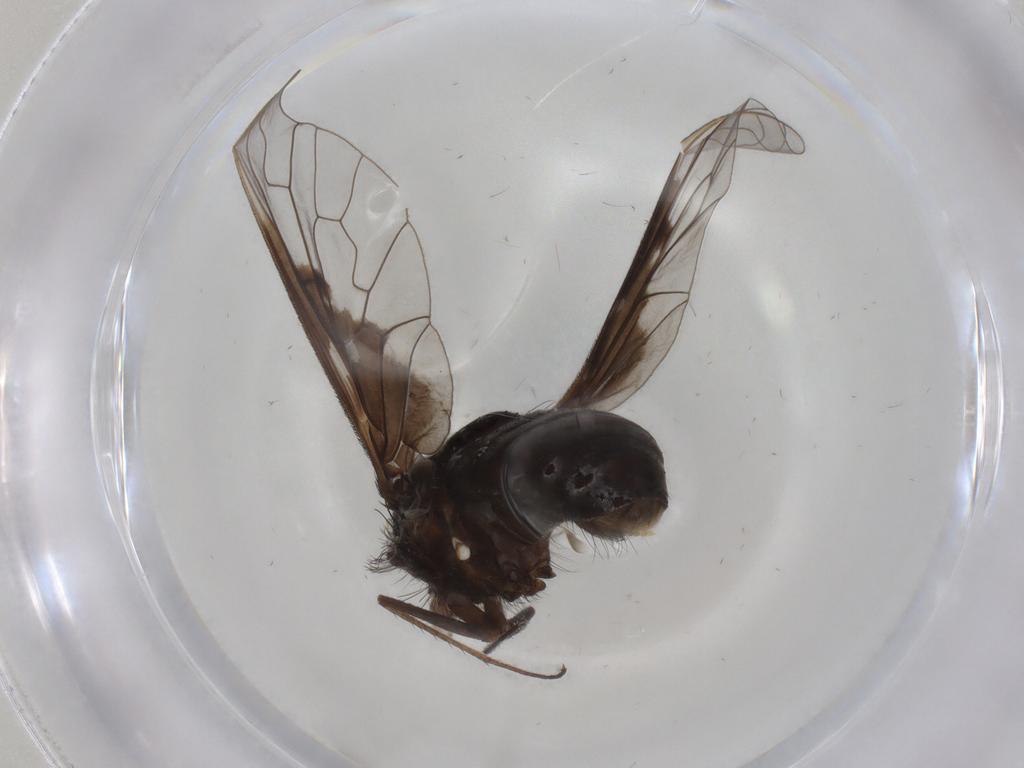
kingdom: Animalia
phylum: Arthropoda
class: Insecta
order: Diptera
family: Bombyliidae
